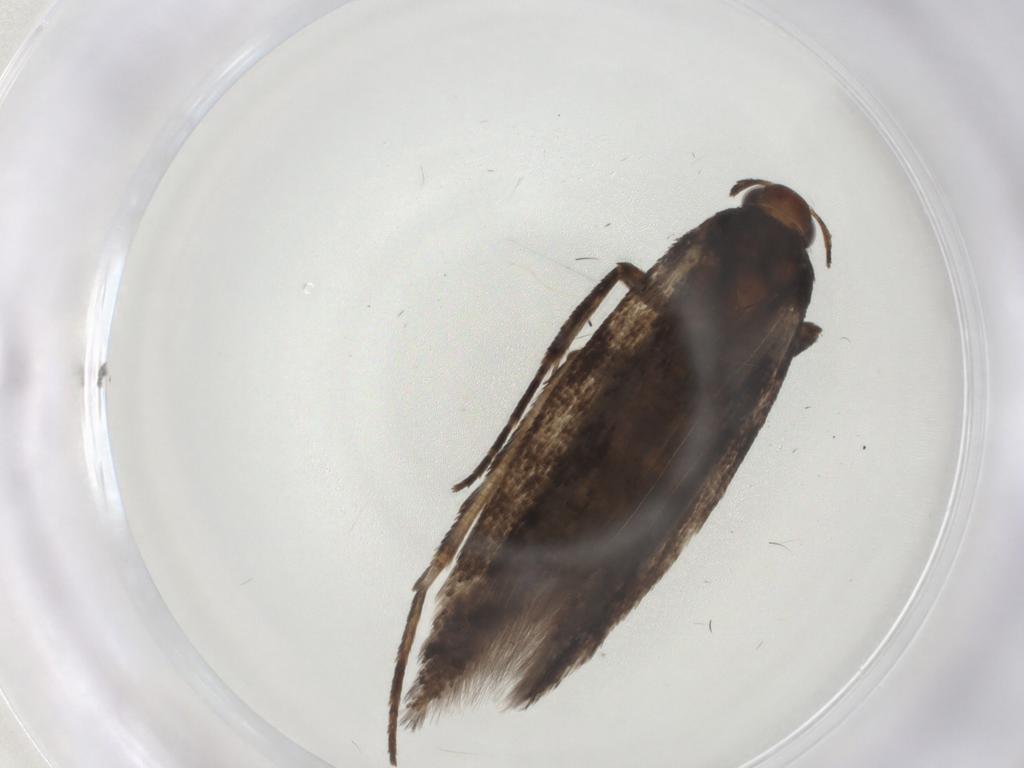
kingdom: Animalia
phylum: Arthropoda
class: Insecta
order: Lepidoptera
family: Gelechiidae
